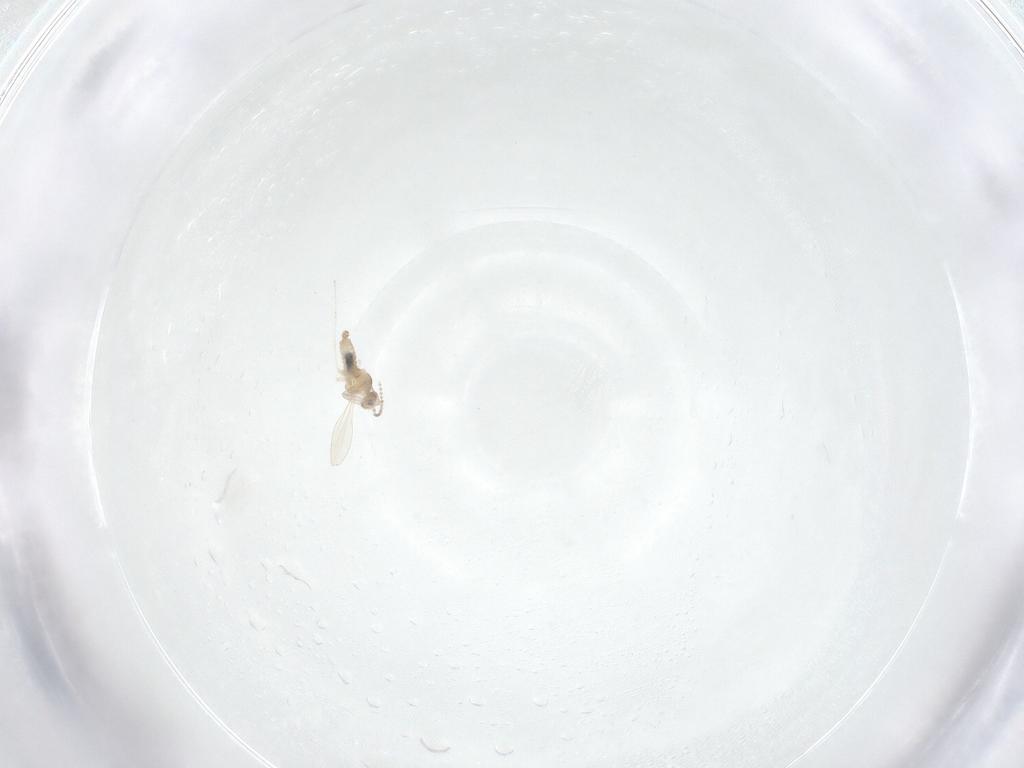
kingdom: Animalia
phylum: Arthropoda
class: Insecta
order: Diptera
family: Cecidomyiidae
